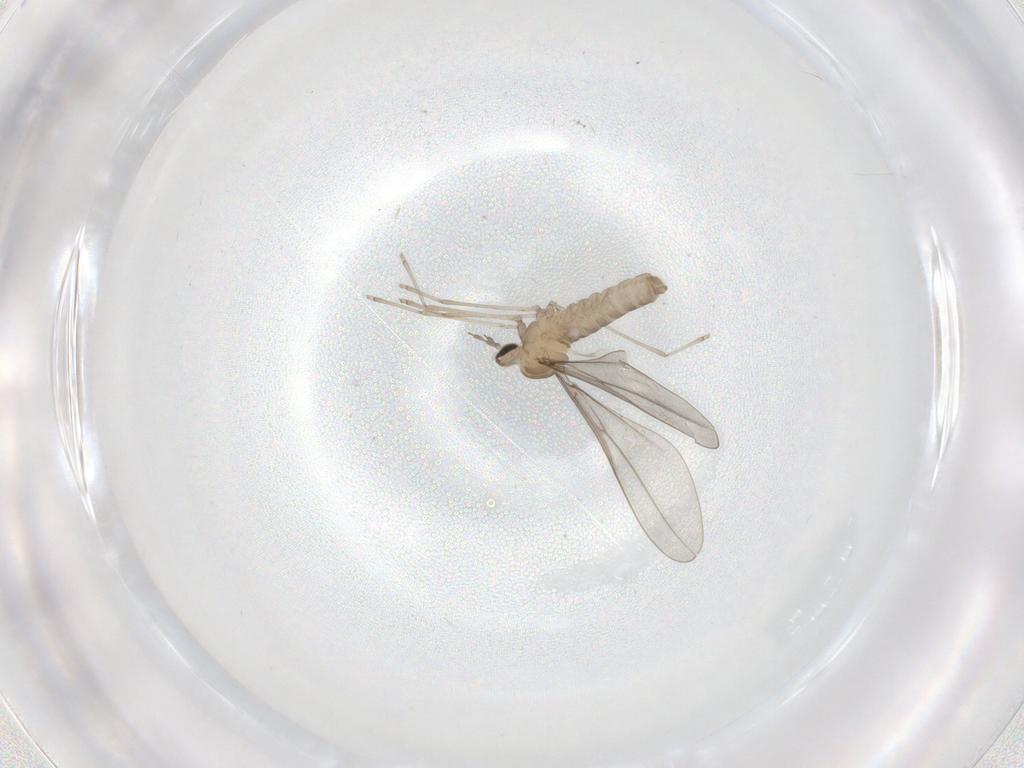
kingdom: Animalia
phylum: Arthropoda
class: Insecta
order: Diptera
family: Cecidomyiidae
